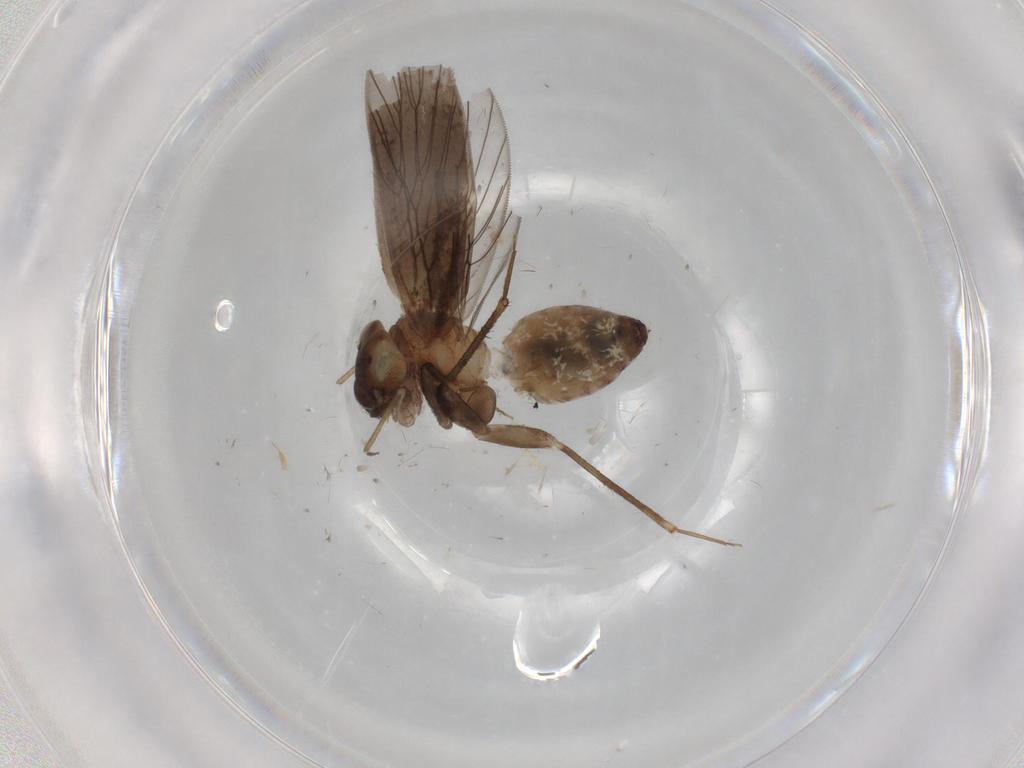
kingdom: Animalia
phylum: Arthropoda
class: Insecta
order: Psocodea
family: Lepidopsocidae
